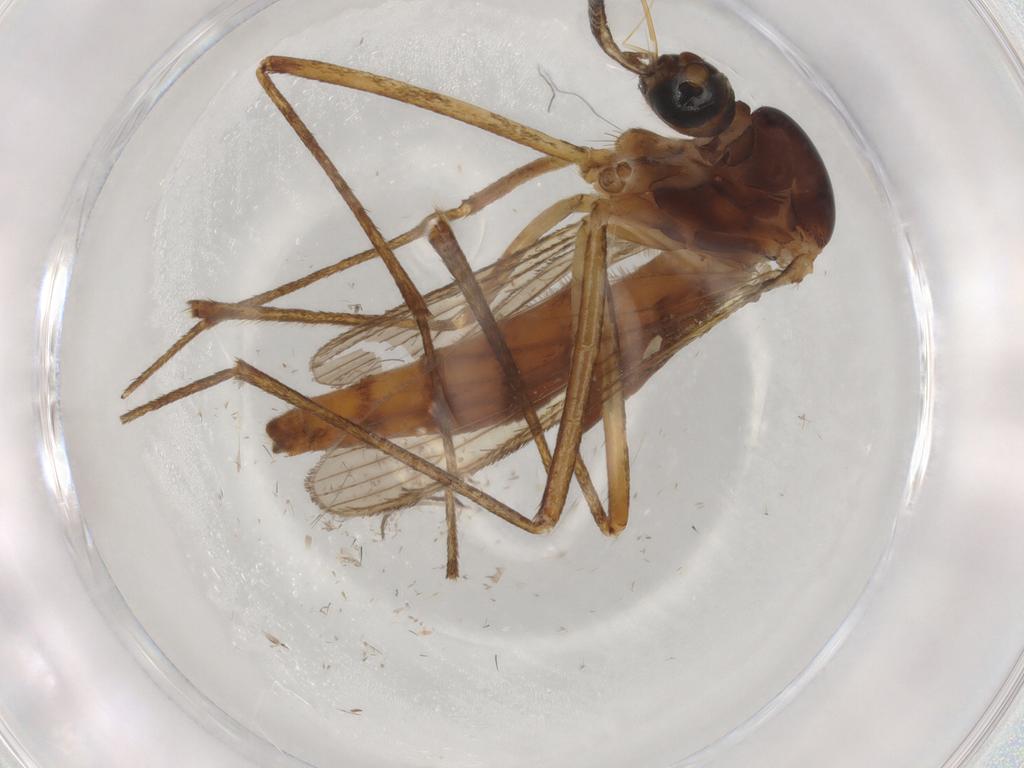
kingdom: Animalia
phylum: Arthropoda
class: Insecta
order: Diptera
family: Culicidae
